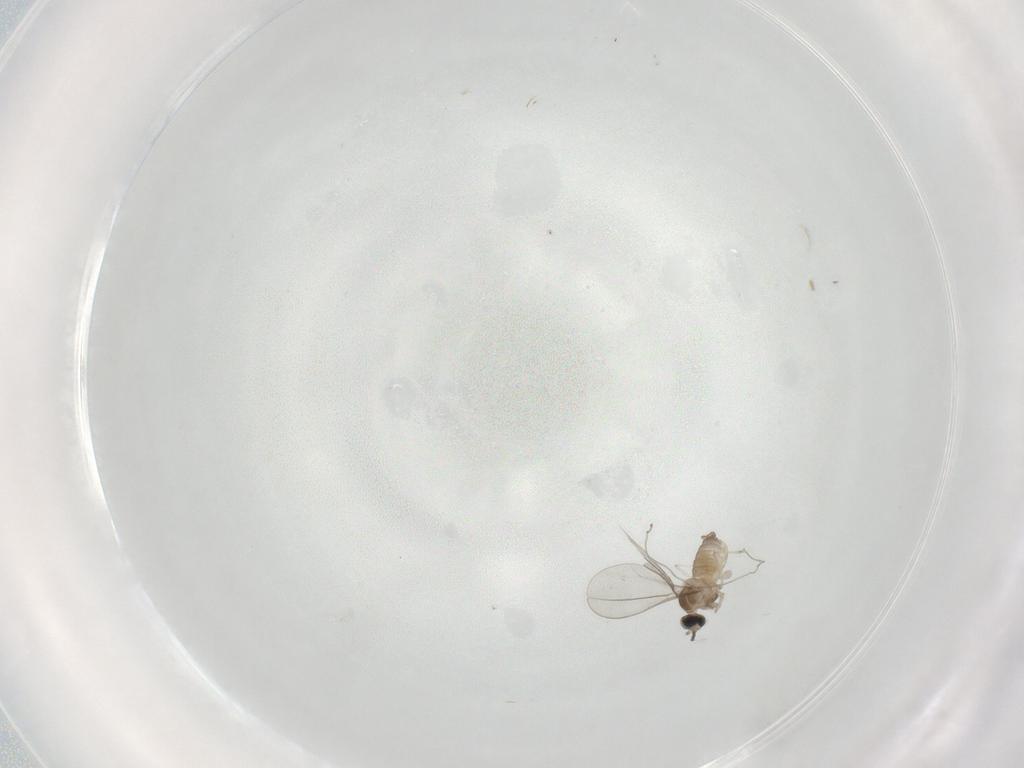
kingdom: Animalia
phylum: Arthropoda
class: Insecta
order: Diptera
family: Cecidomyiidae
